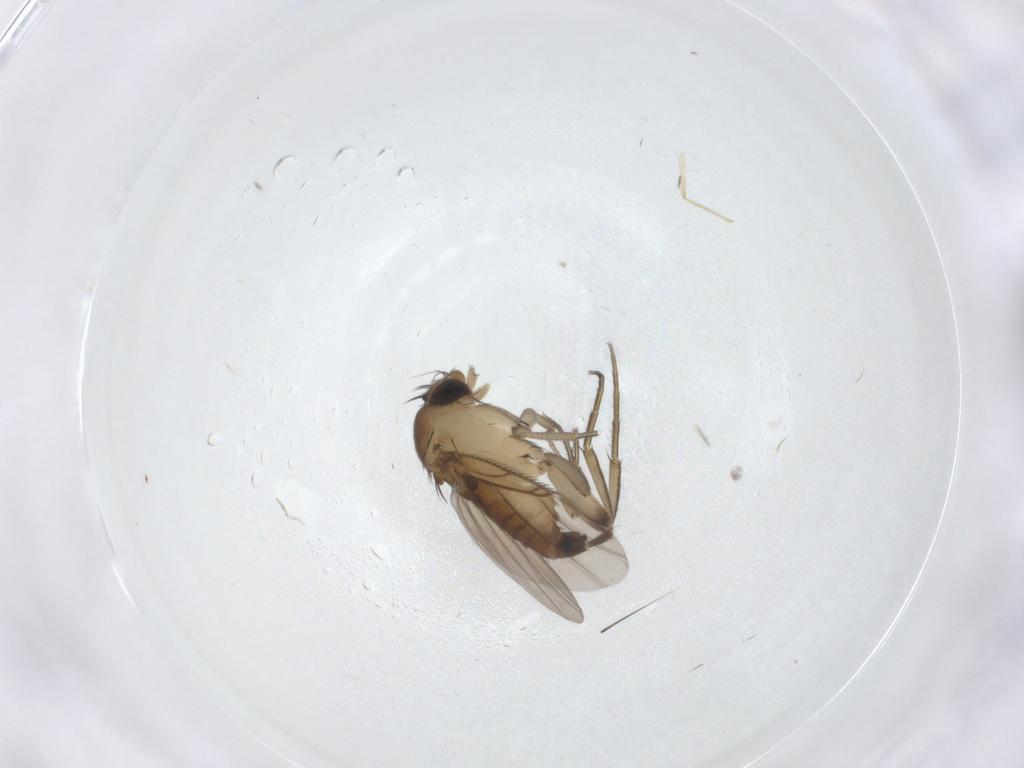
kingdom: Animalia
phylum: Arthropoda
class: Insecta
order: Diptera
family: Phoridae
